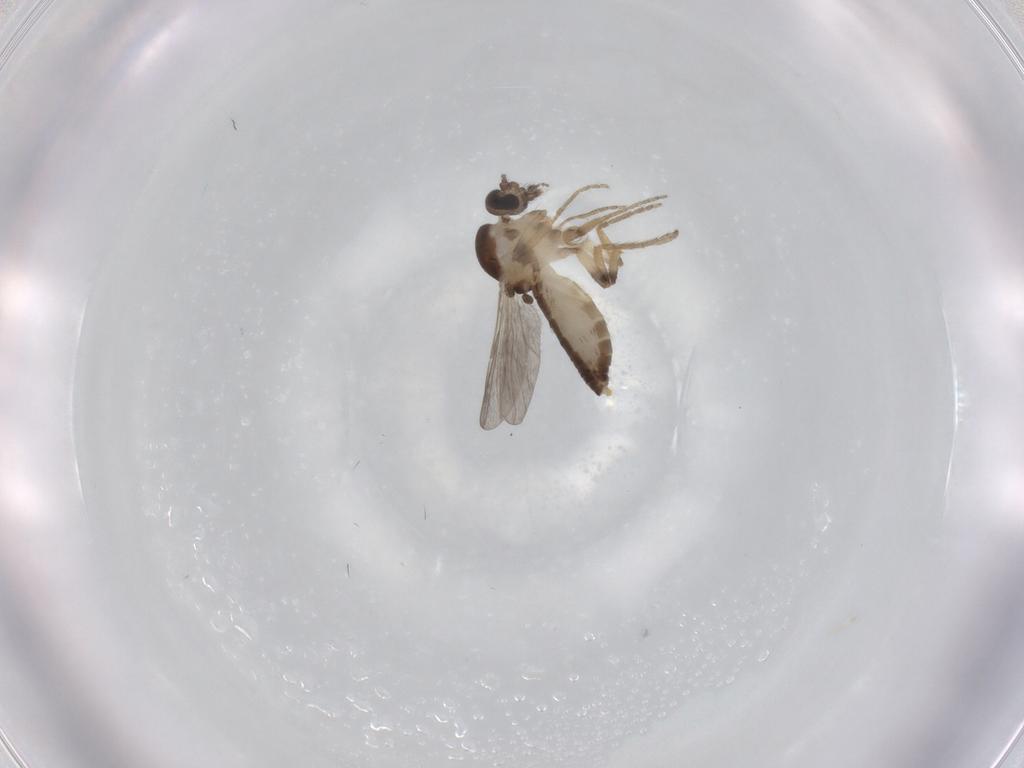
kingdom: Animalia
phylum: Arthropoda
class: Insecta
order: Diptera
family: Ceratopogonidae
